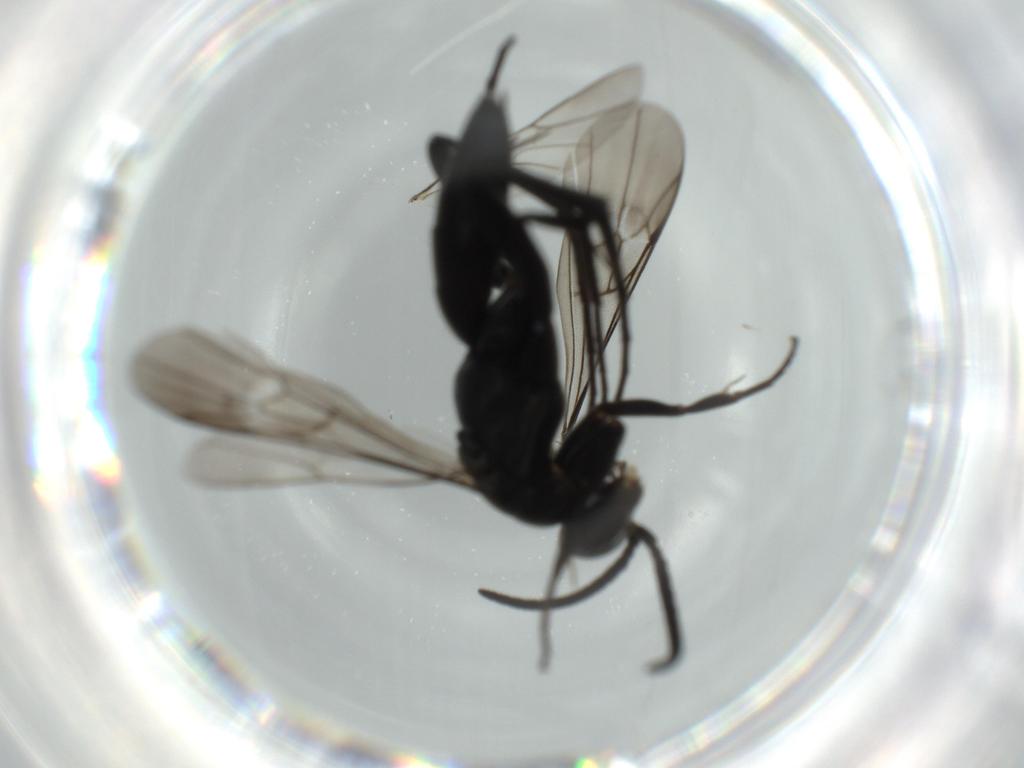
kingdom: Animalia
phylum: Arthropoda
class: Insecta
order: Hymenoptera
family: Pompilidae
